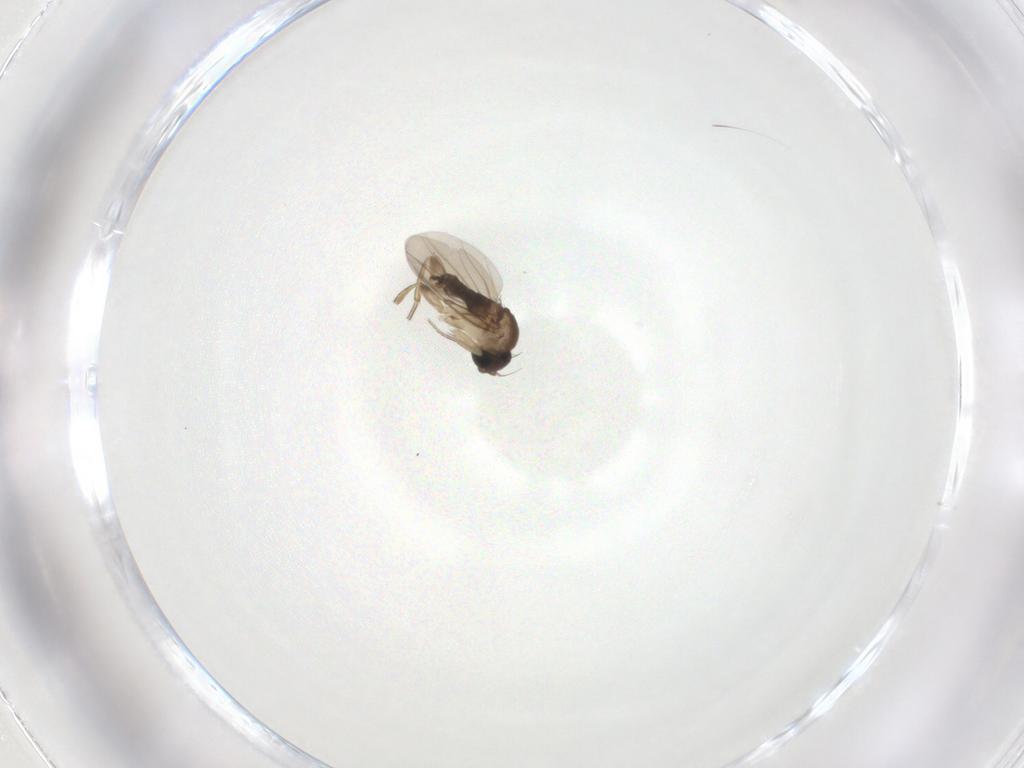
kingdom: Animalia
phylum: Arthropoda
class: Insecta
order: Diptera
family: Phoridae
